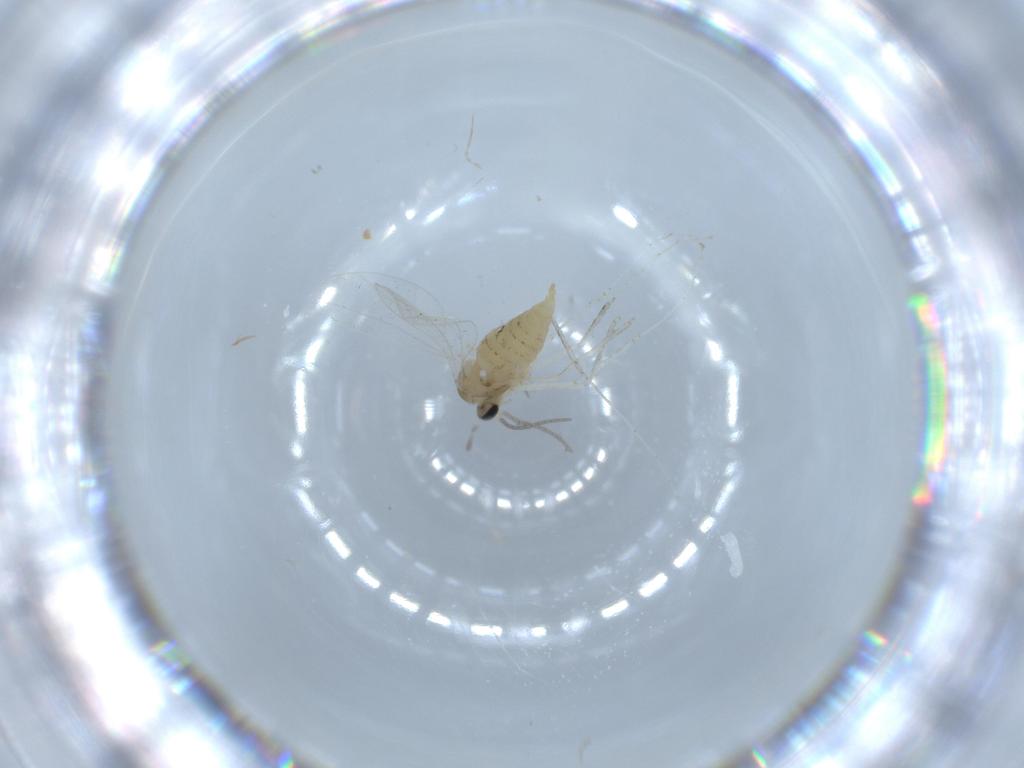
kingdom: Animalia
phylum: Arthropoda
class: Insecta
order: Diptera
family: Cecidomyiidae
